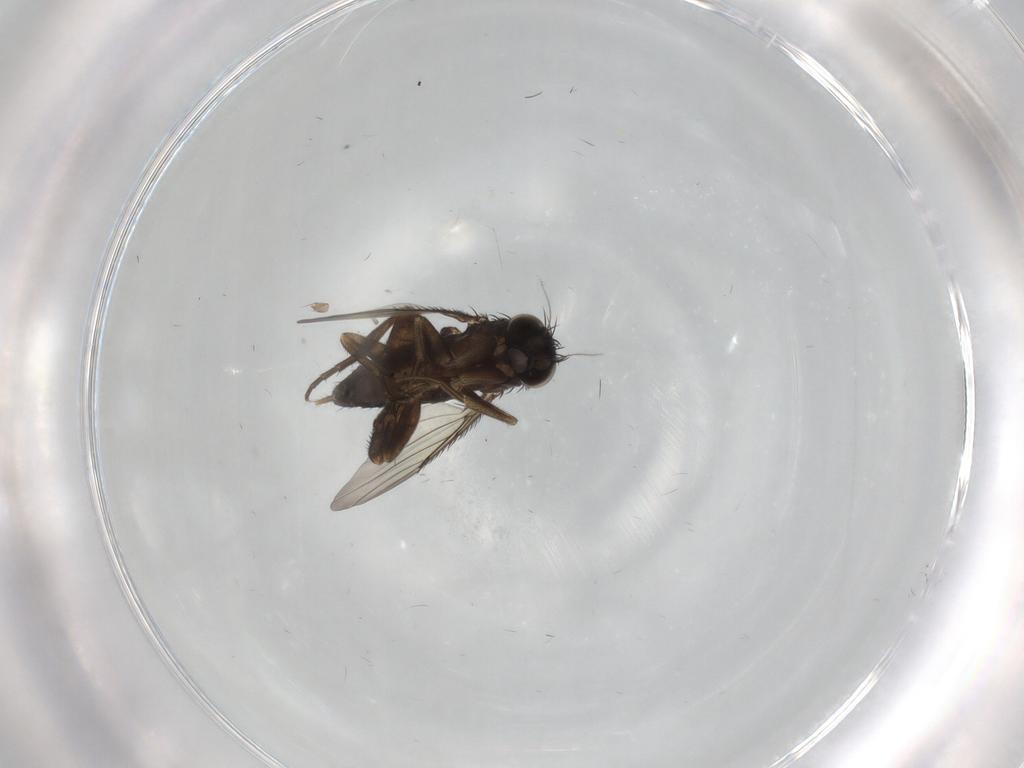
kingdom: Animalia
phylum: Arthropoda
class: Insecta
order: Diptera
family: Phoridae
